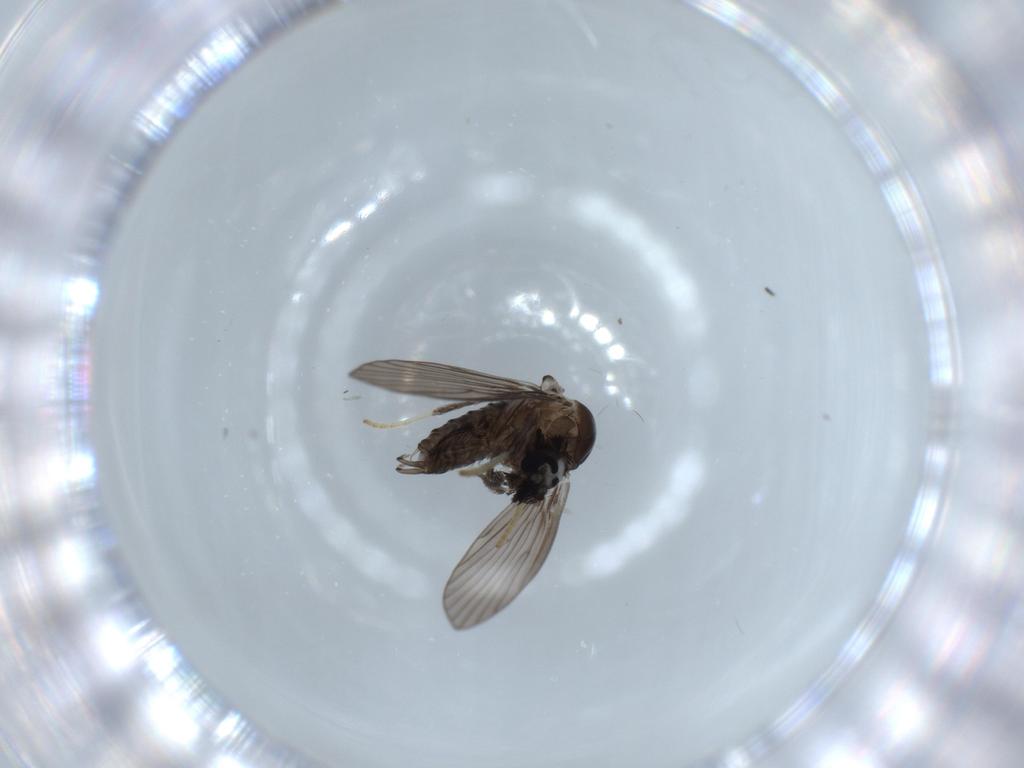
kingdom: Animalia
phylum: Arthropoda
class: Insecta
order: Diptera
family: Psychodidae
